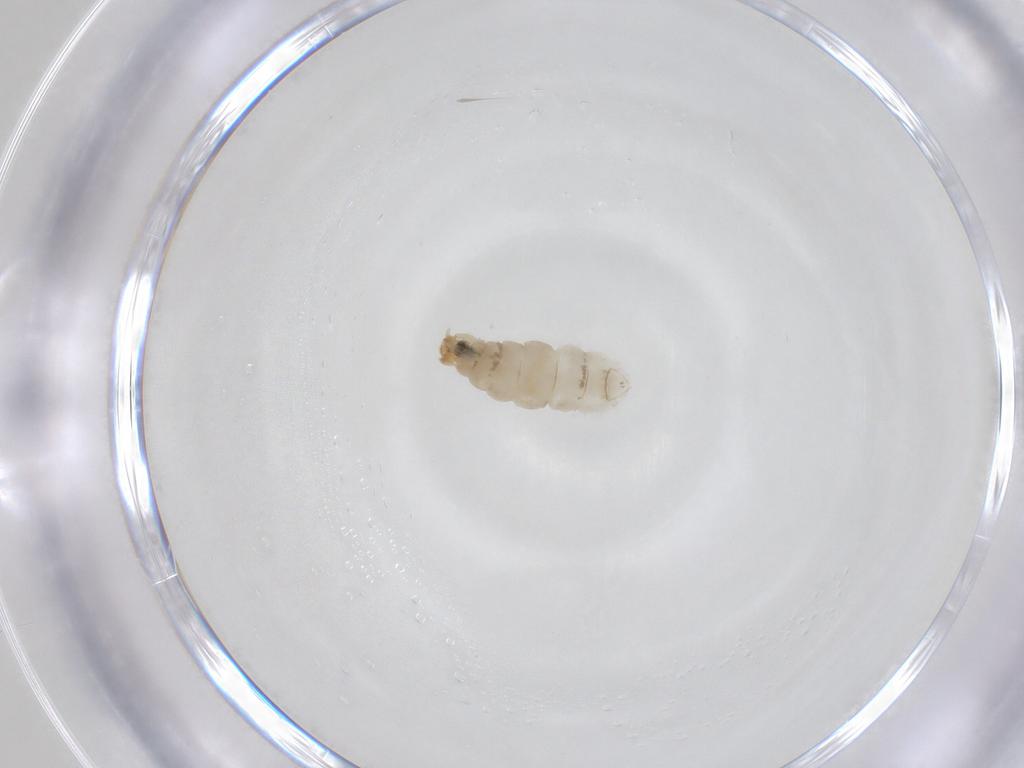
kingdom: Animalia
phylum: Arthropoda
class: Insecta
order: Lepidoptera
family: Dryadaulidae
